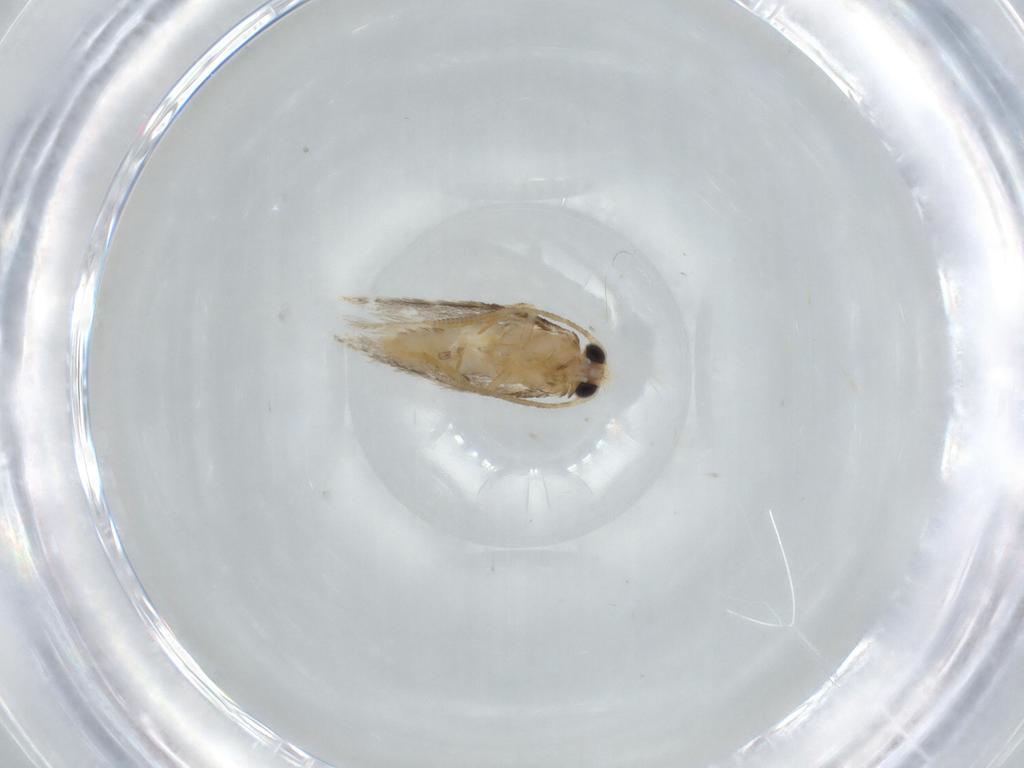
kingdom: Animalia
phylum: Arthropoda
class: Insecta
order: Lepidoptera
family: Nepticulidae
